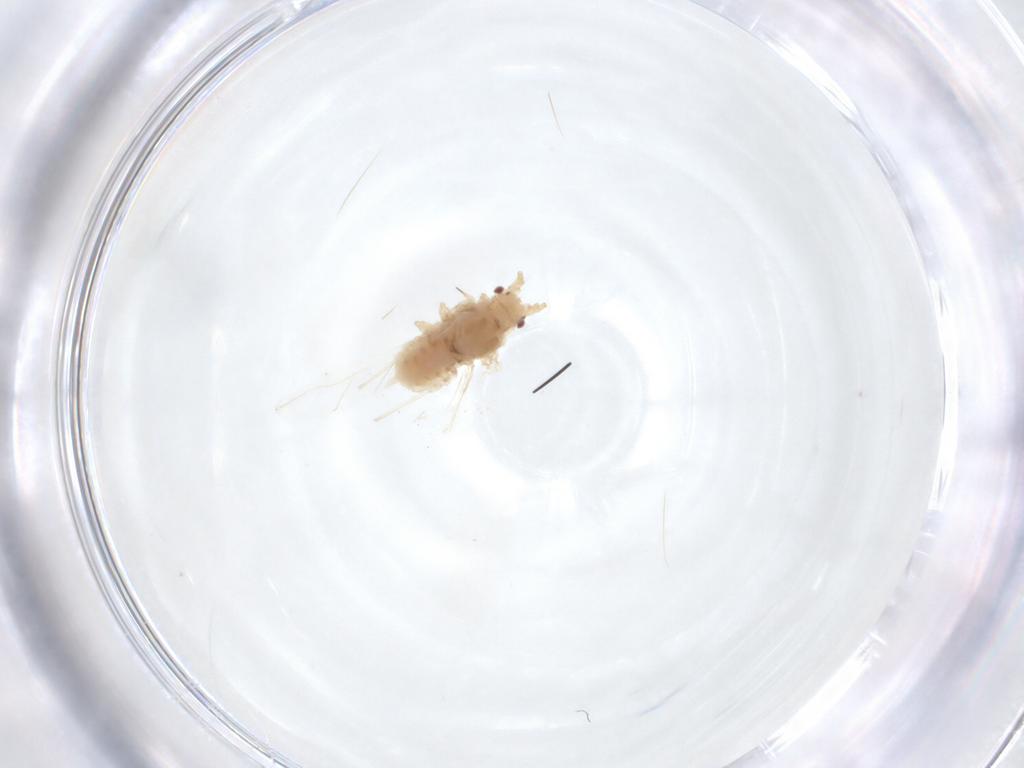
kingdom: Animalia
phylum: Arthropoda
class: Insecta
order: Hemiptera
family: Aphididae
